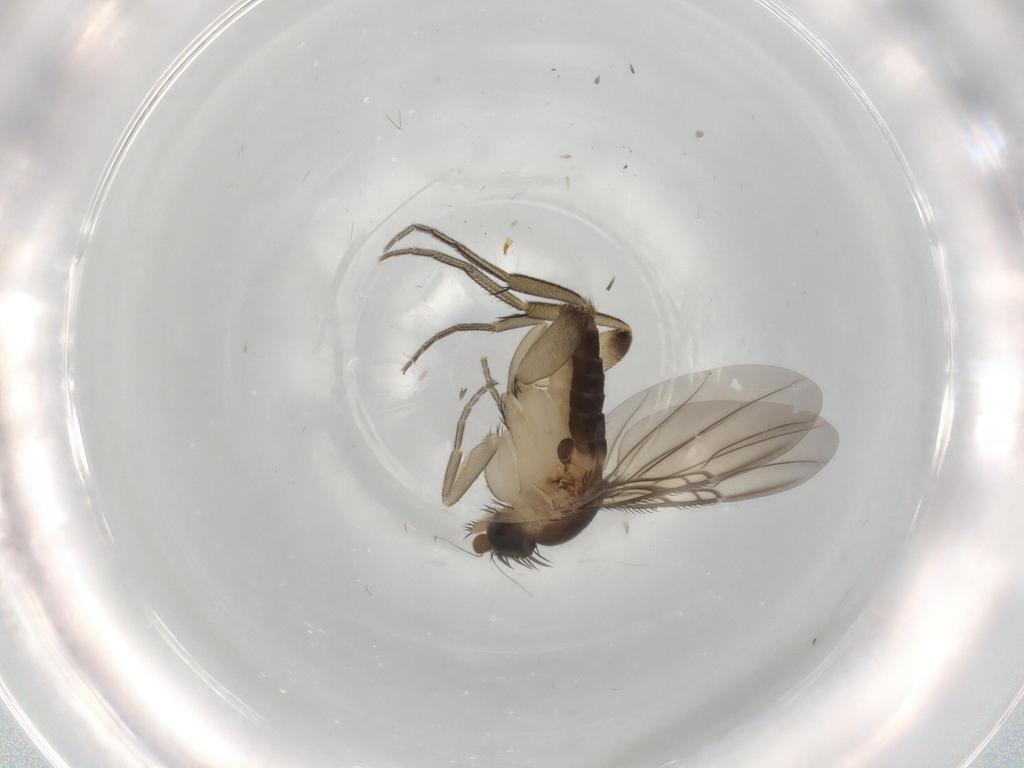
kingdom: Animalia
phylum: Arthropoda
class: Insecta
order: Diptera
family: Phoridae
